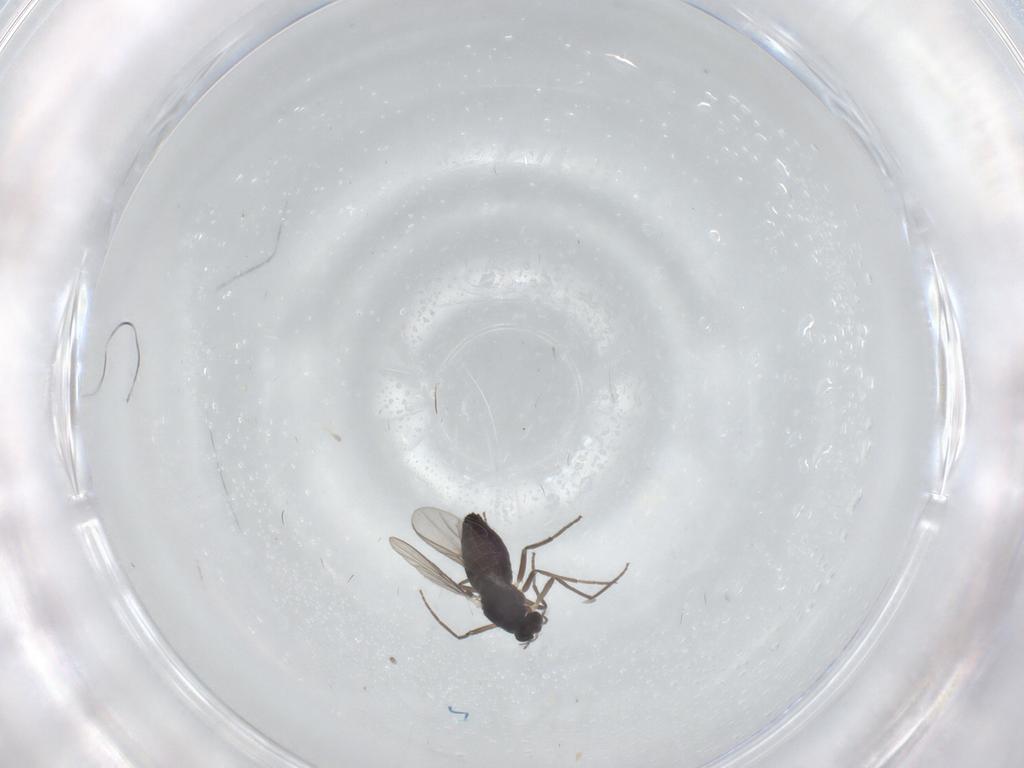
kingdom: Animalia
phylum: Arthropoda
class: Insecta
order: Diptera
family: Chironomidae
